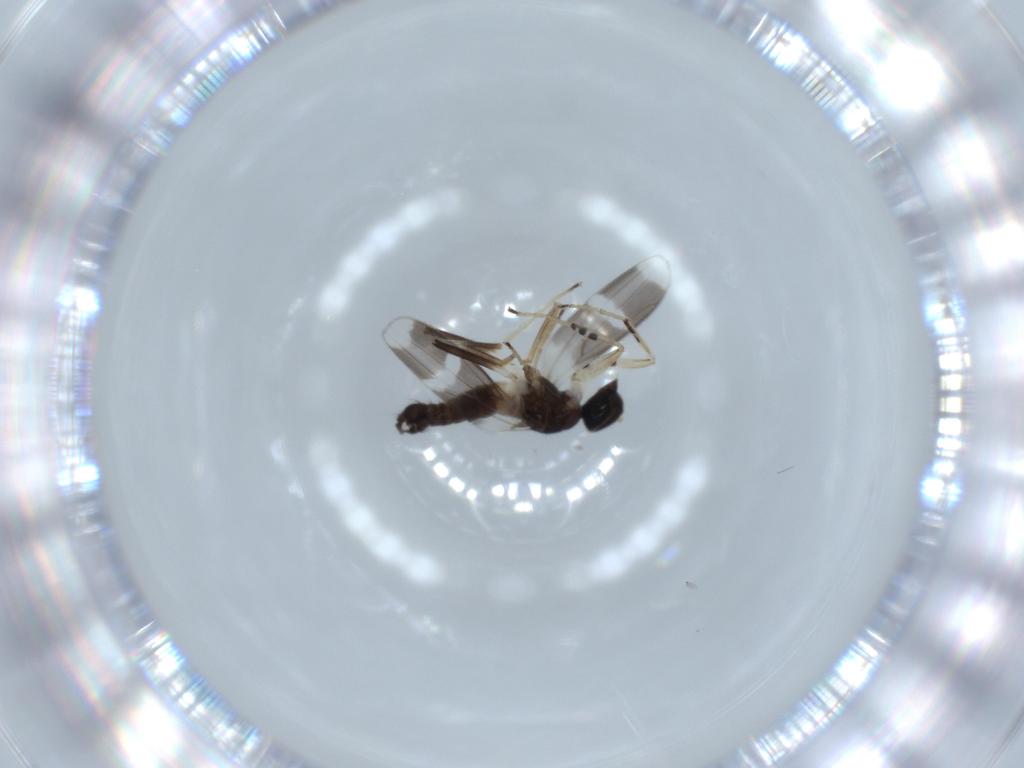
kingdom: Animalia
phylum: Arthropoda
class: Insecta
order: Diptera
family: Hybotidae
